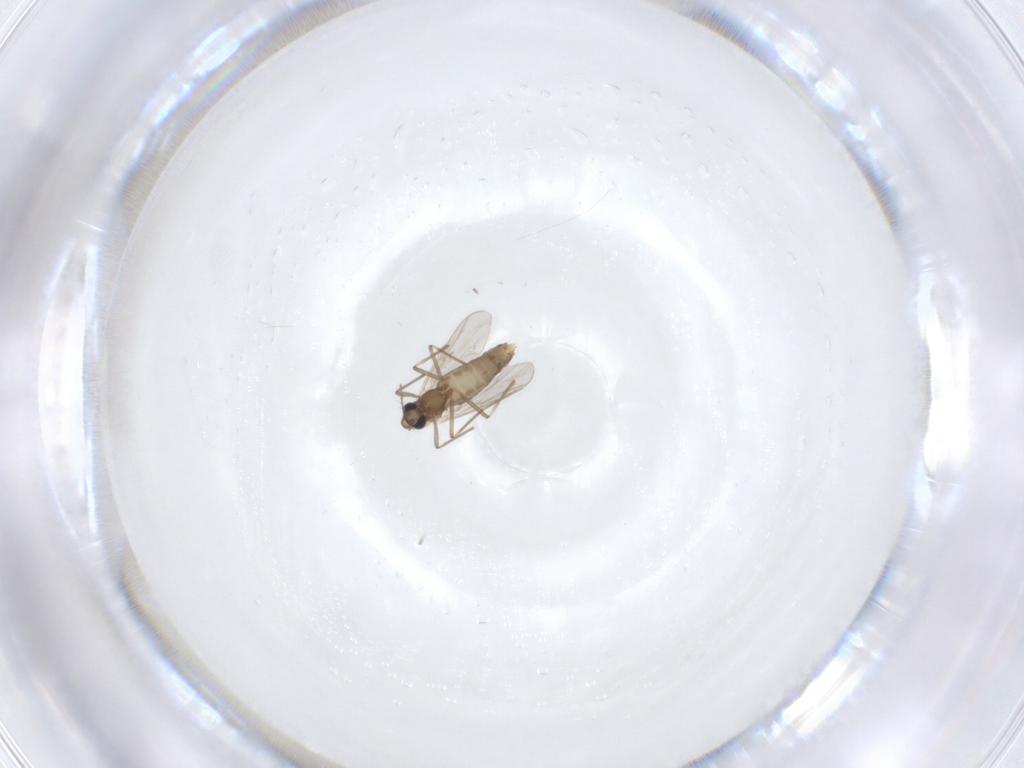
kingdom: Animalia
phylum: Arthropoda
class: Insecta
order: Diptera
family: Chironomidae
